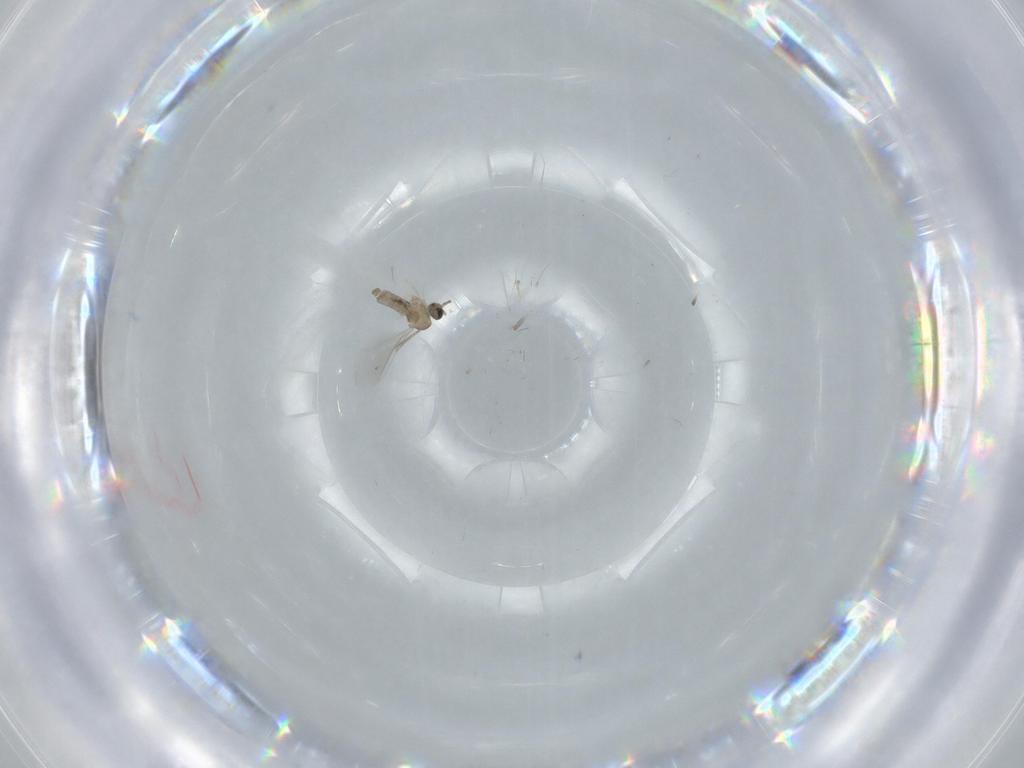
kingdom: Animalia
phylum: Arthropoda
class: Insecta
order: Diptera
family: Cecidomyiidae
